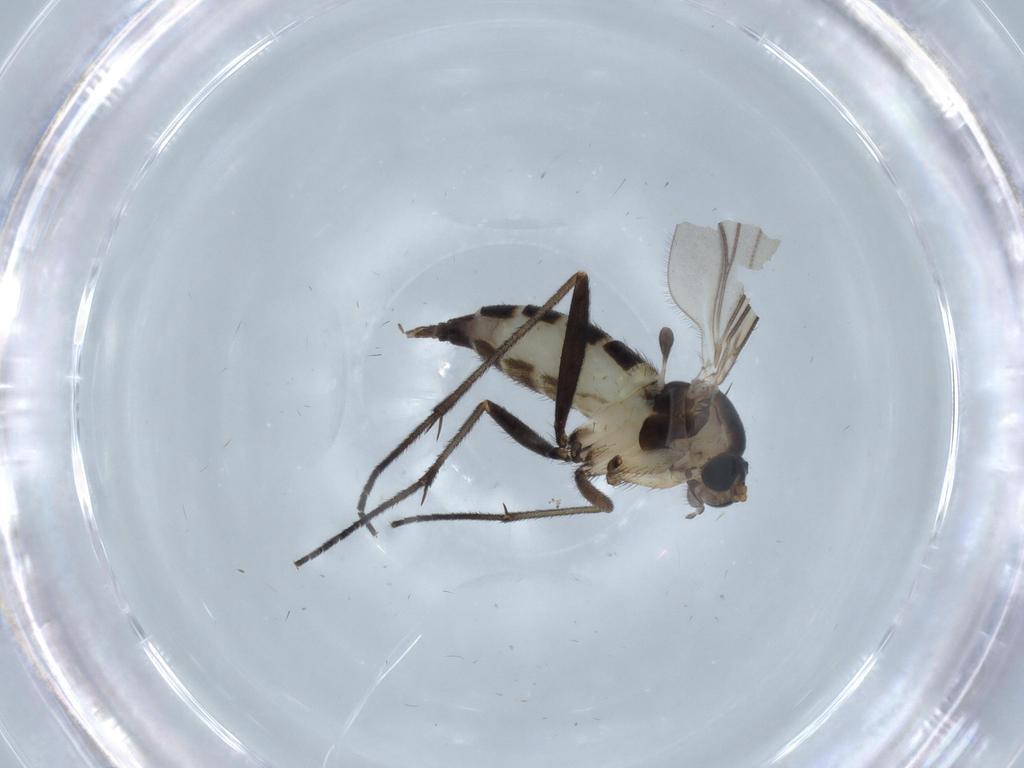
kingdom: Animalia
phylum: Arthropoda
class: Insecta
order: Diptera
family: Sciaridae
